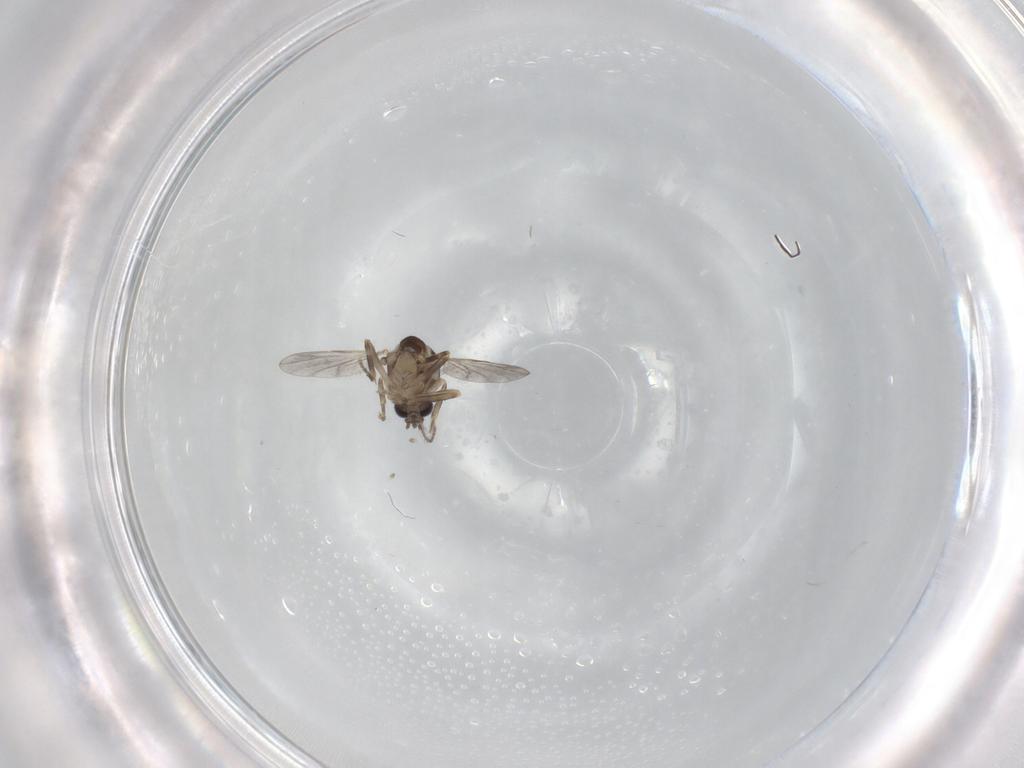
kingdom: Animalia
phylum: Arthropoda
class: Insecta
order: Diptera
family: Ceratopogonidae
